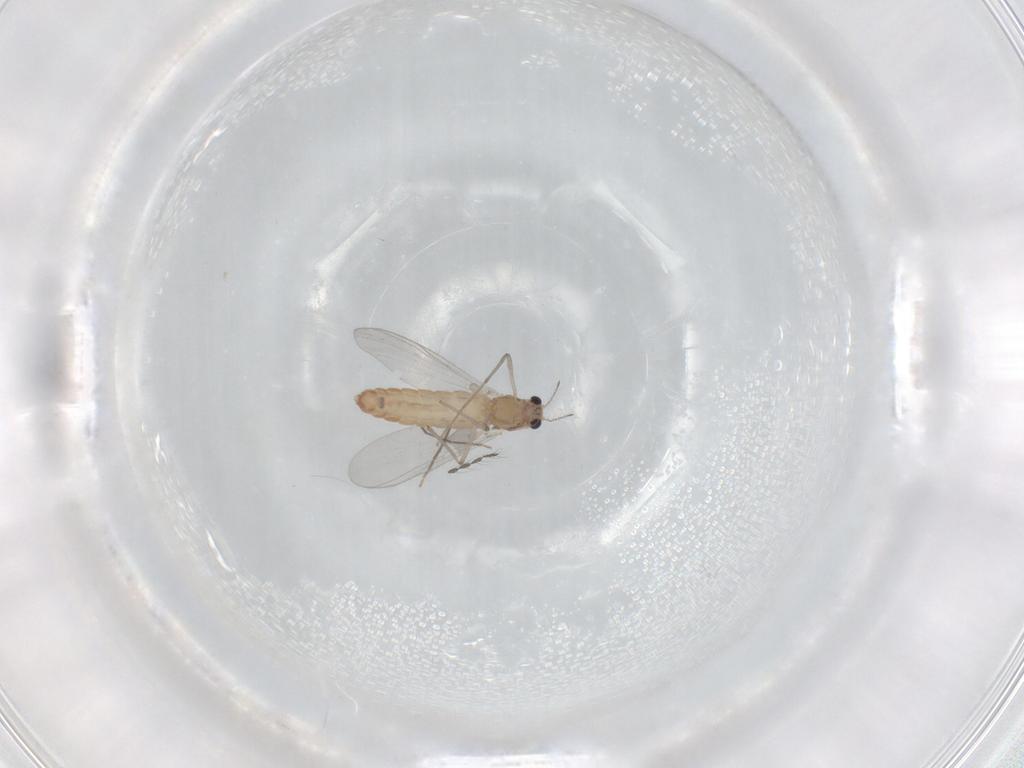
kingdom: Animalia
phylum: Arthropoda
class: Insecta
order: Diptera
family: Chironomidae
